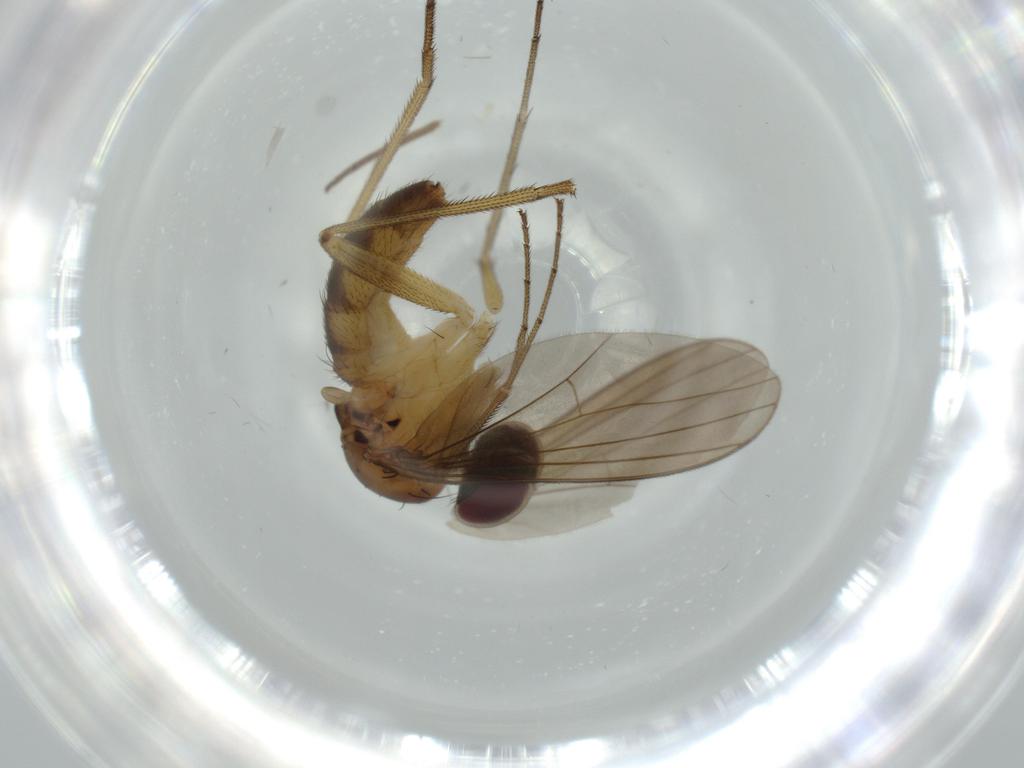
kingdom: Animalia
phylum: Arthropoda
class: Insecta
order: Diptera
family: Dolichopodidae
